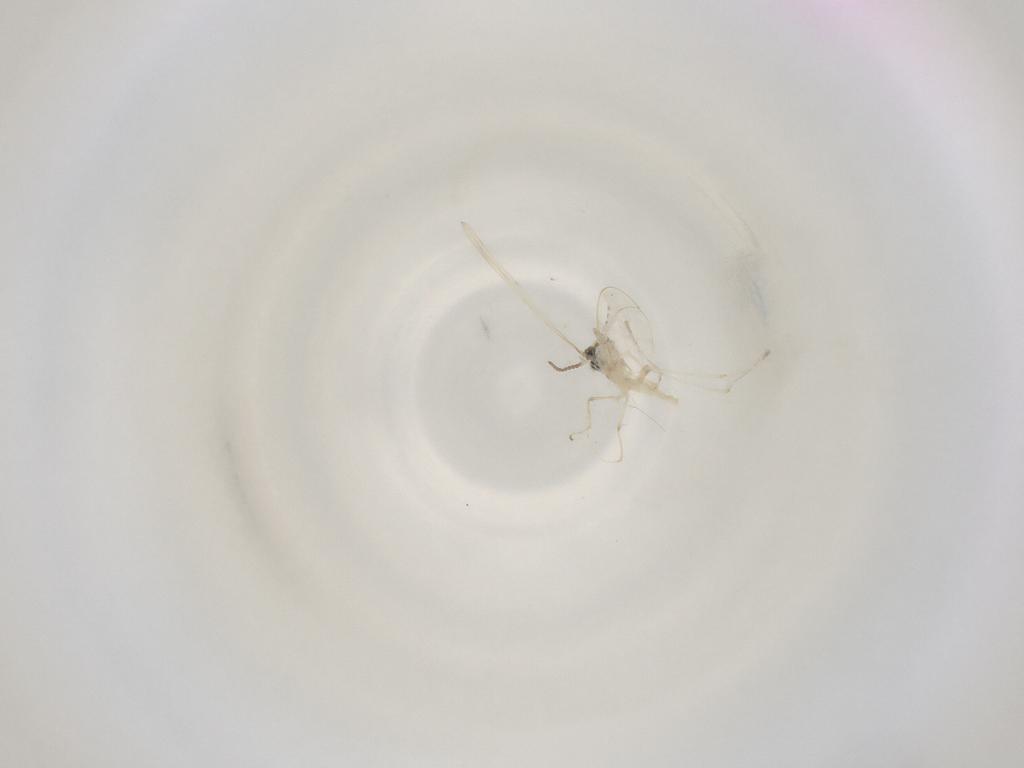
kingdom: Animalia
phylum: Arthropoda
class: Insecta
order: Diptera
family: Cecidomyiidae
